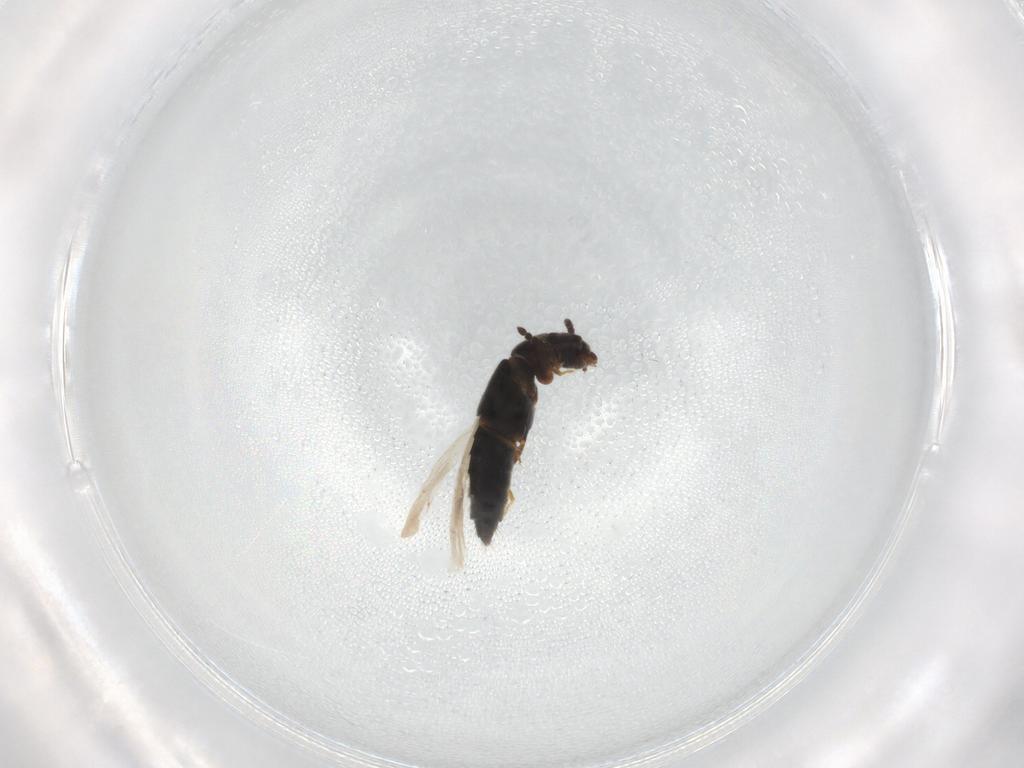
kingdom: Animalia
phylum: Arthropoda
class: Insecta
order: Coleoptera
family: Staphylinidae
